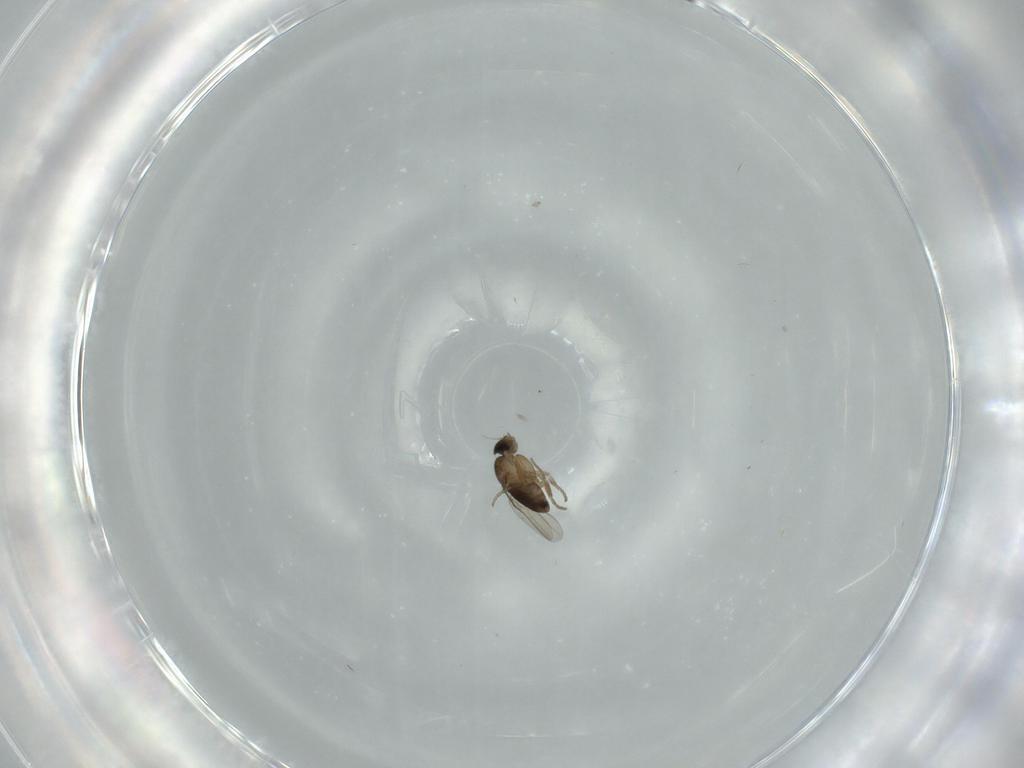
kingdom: Animalia
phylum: Arthropoda
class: Insecta
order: Diptera
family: Phoridae
